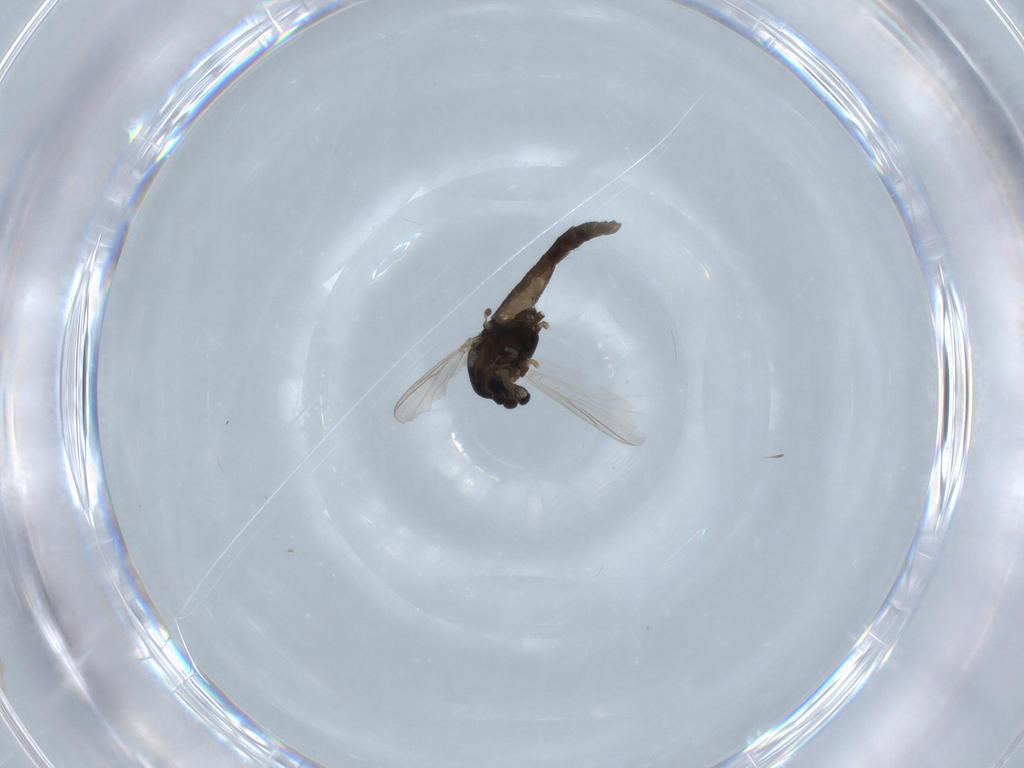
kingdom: Animalia
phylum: Arthropoda
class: Insecta
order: Diptera
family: Chironomidae
